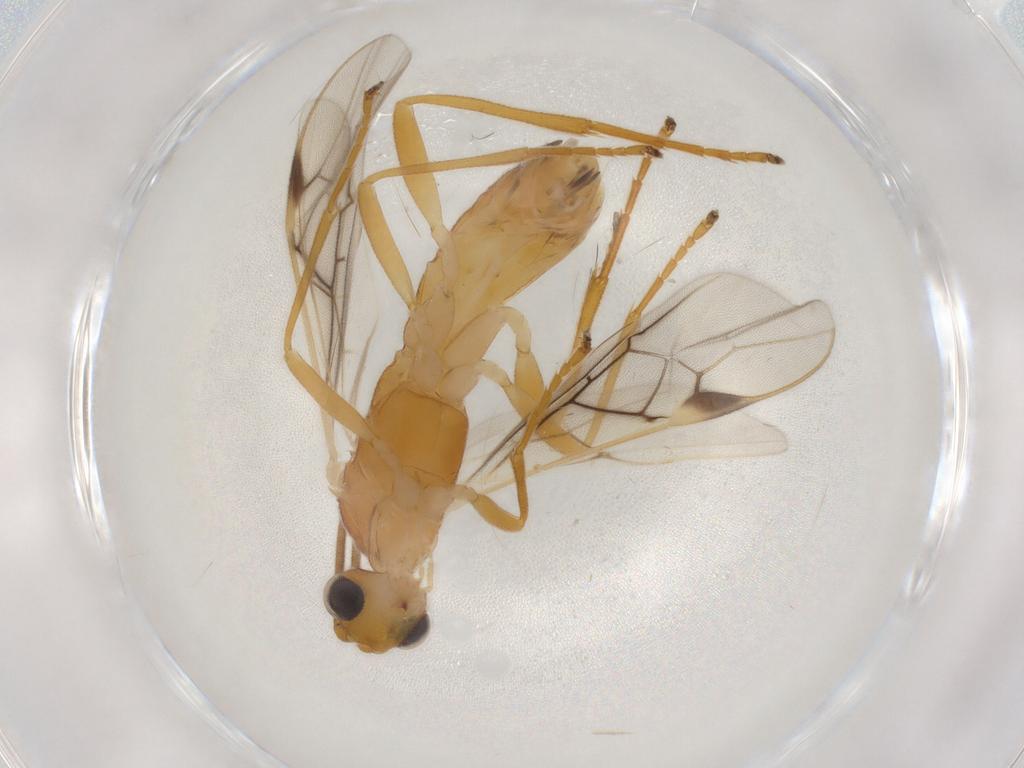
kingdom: Animalia
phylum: Arthropoda
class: Insecta
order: Hymenoptera
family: Braconidae
